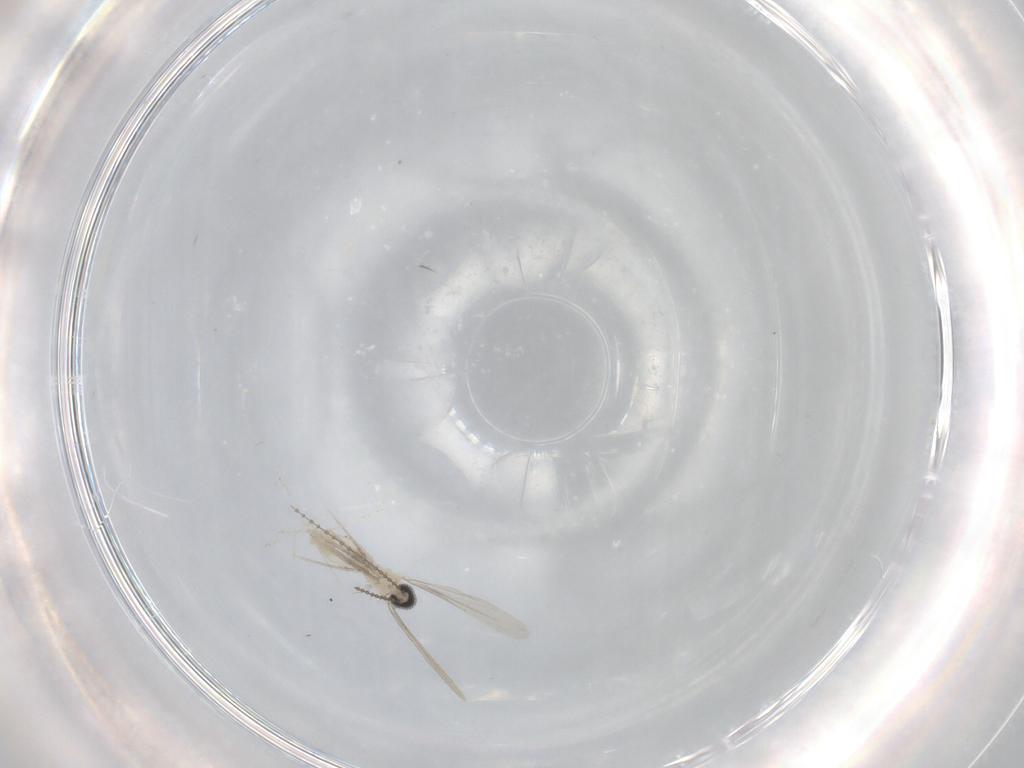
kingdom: Animalia
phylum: Arthropoda
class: Insecta
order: Diptera
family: Cecidomyiidae
